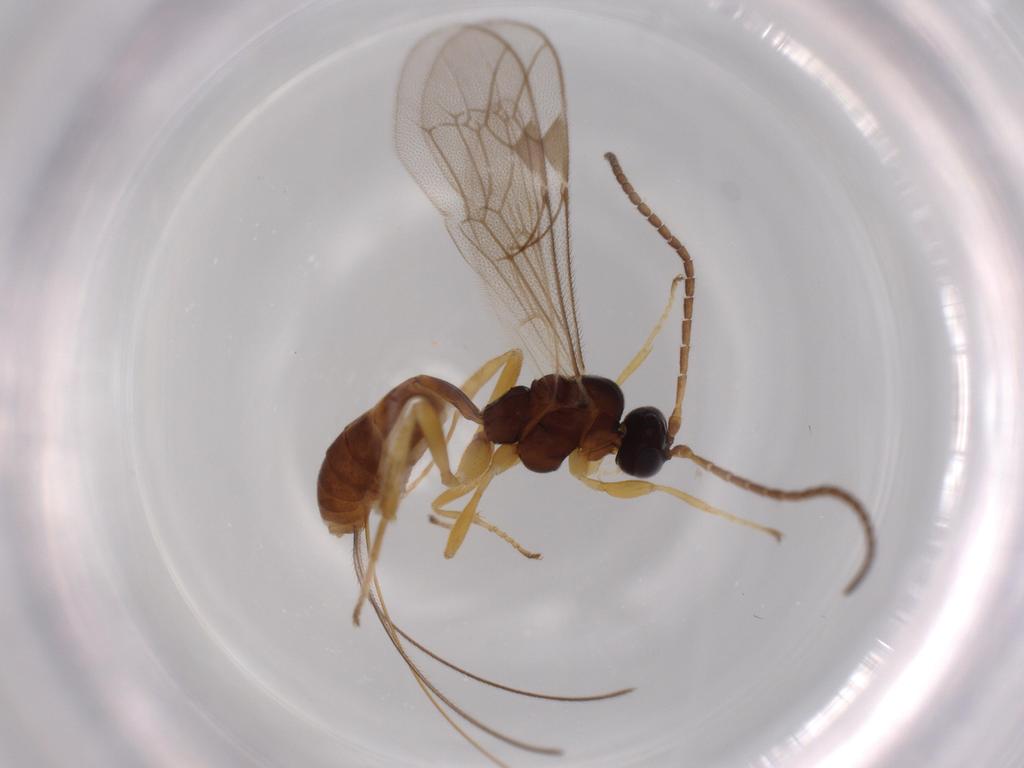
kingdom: Animalia
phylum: Arthropoda
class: Insecta
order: Hymenoptera
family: Ichneumonidae
